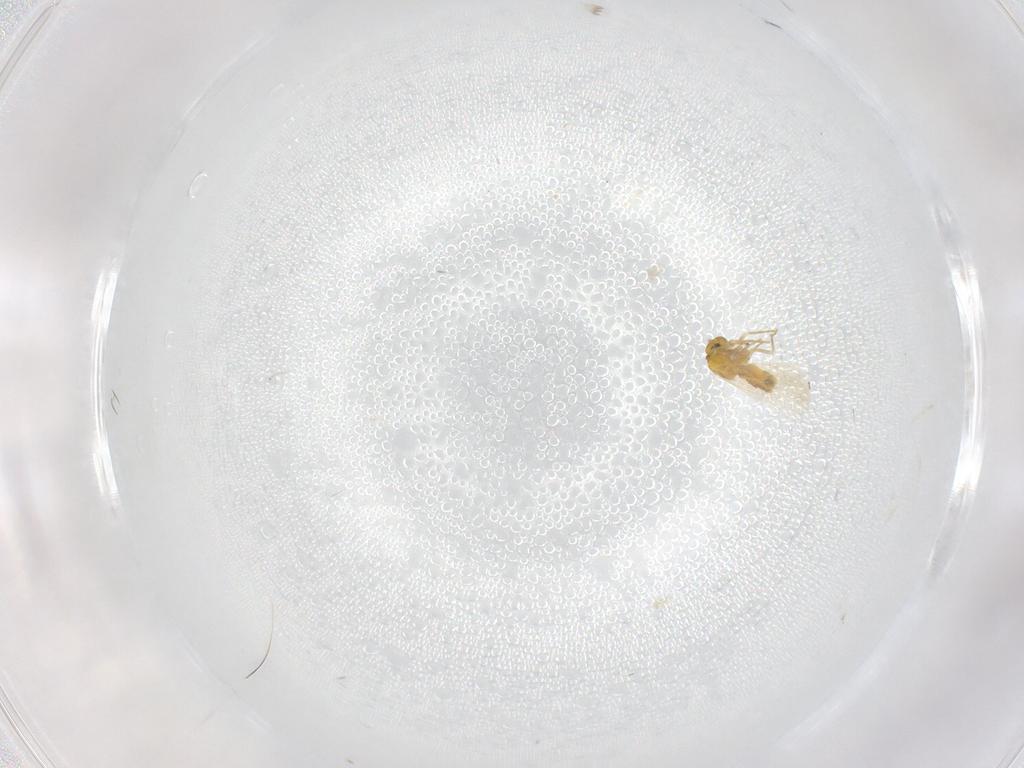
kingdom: Animalia
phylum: Arthropoda
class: Insecta
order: Hemiptera
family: Aleyrodidae
